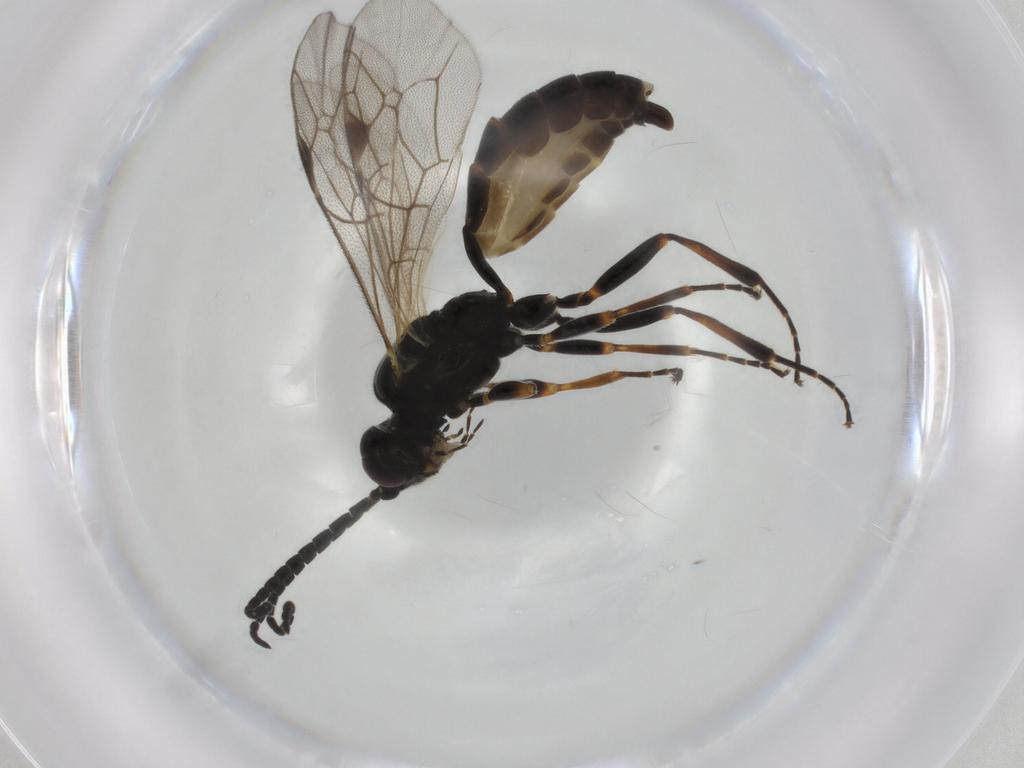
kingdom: Animalia
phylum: Arthropoda
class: Insecta
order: Hymenoptera
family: Ichneumonidae
